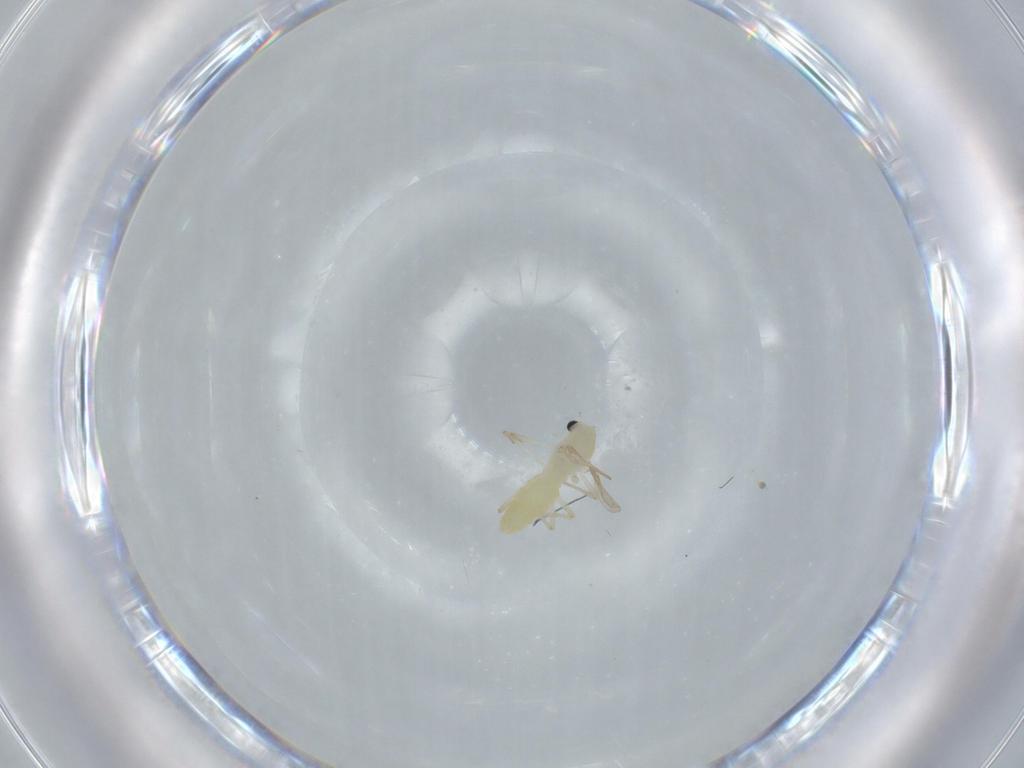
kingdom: Animalia
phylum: Arthropoda
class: Insecta
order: Diptera
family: Chironomidae
